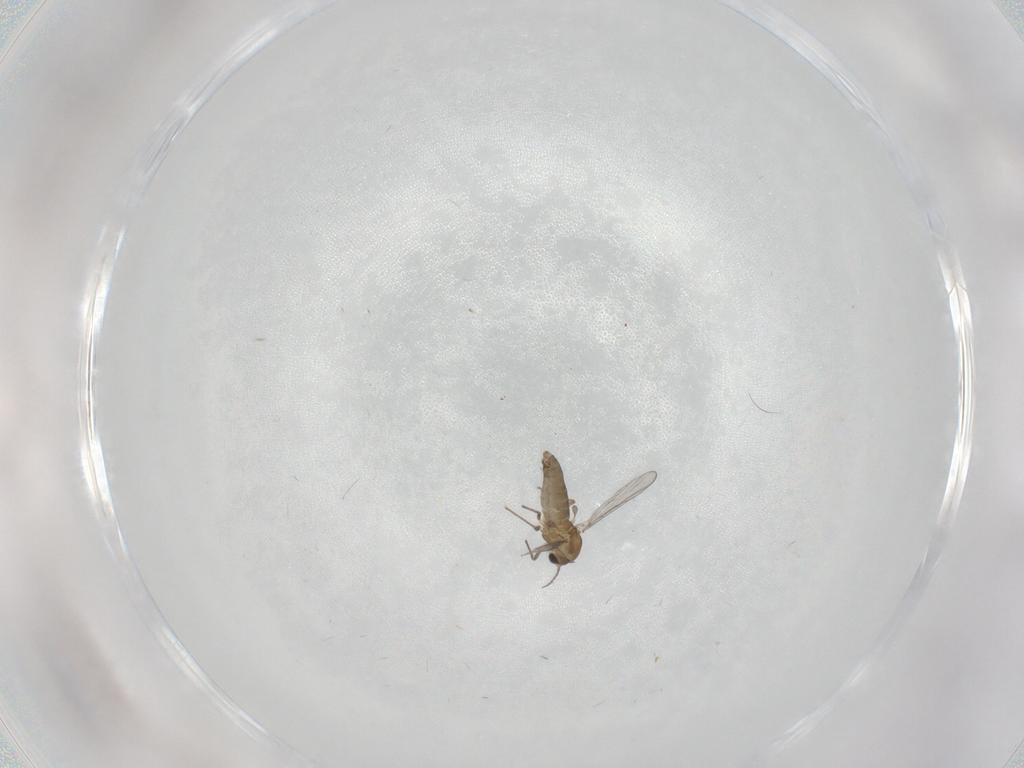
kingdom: Animalia
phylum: Arthropoda
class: Insecta
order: Diptera
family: Chironomidae
